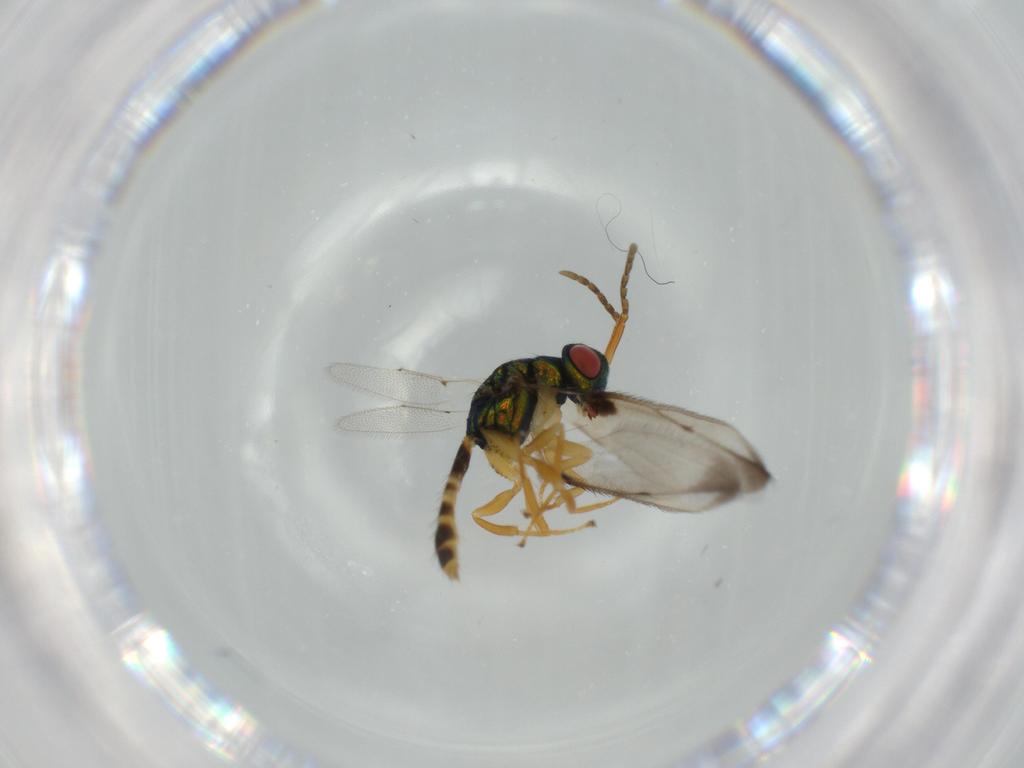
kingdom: Animalia
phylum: Arthropoda
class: Insecta
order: Hymenoptera
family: Pteromalidae
